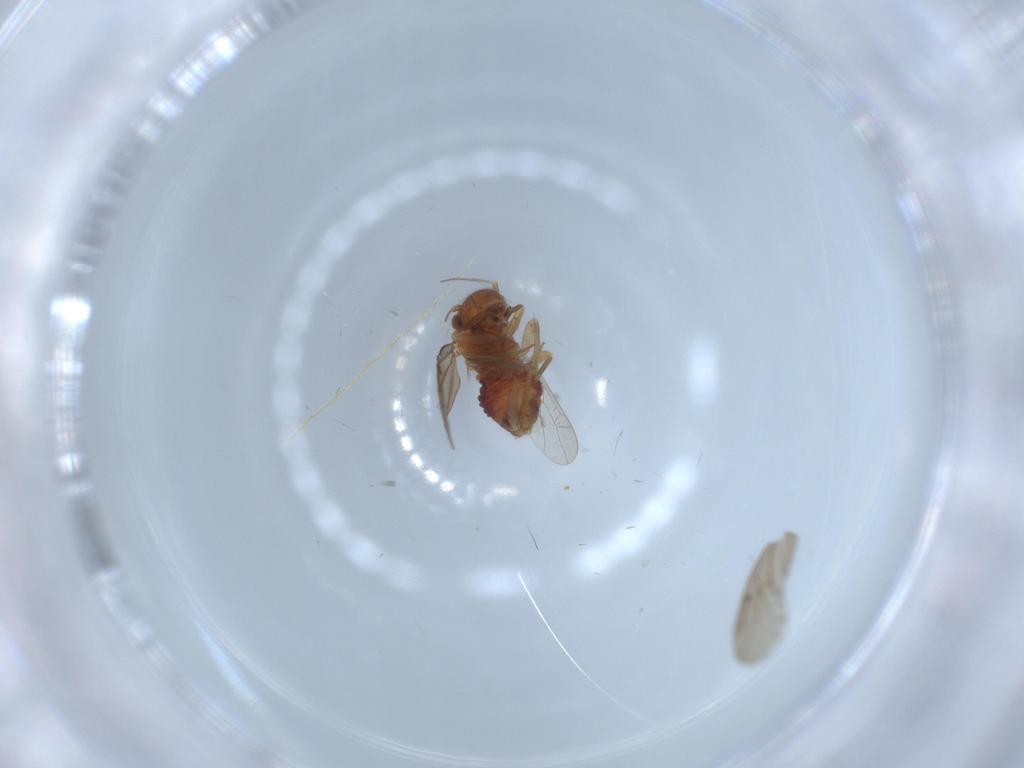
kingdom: Animalia
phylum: Arthropoda
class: Insecta
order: Psocodea
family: Ectopsocidae
